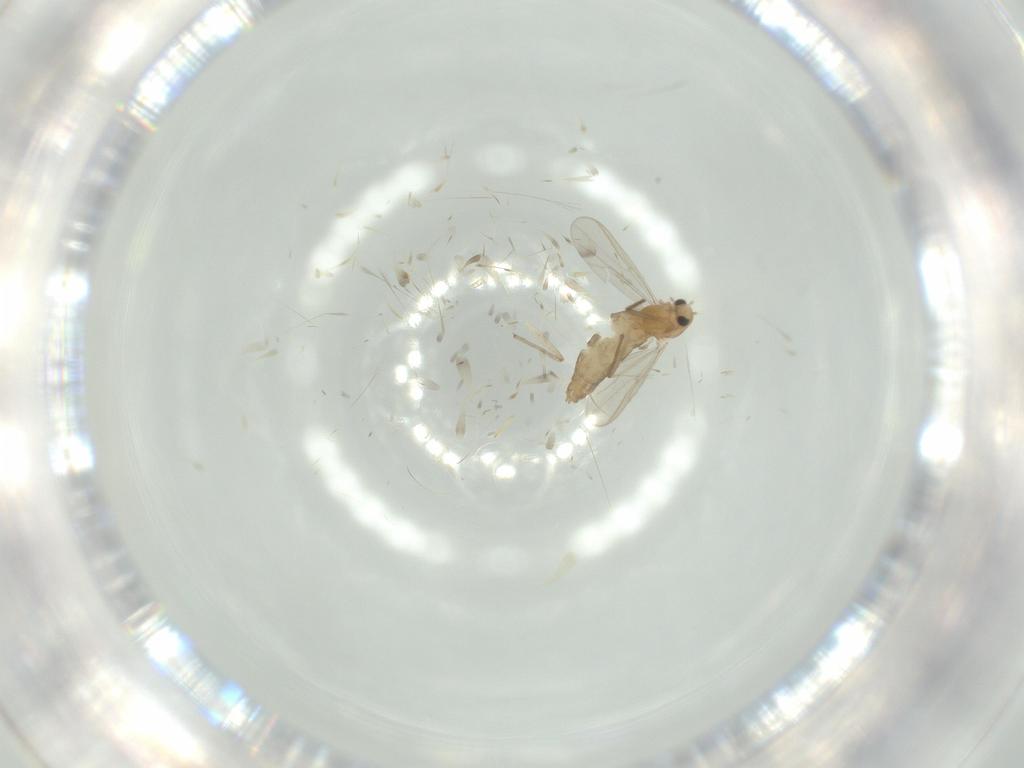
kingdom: Animalia
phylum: Arthropoda
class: Insecta
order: Diptera
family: Chironomidae
